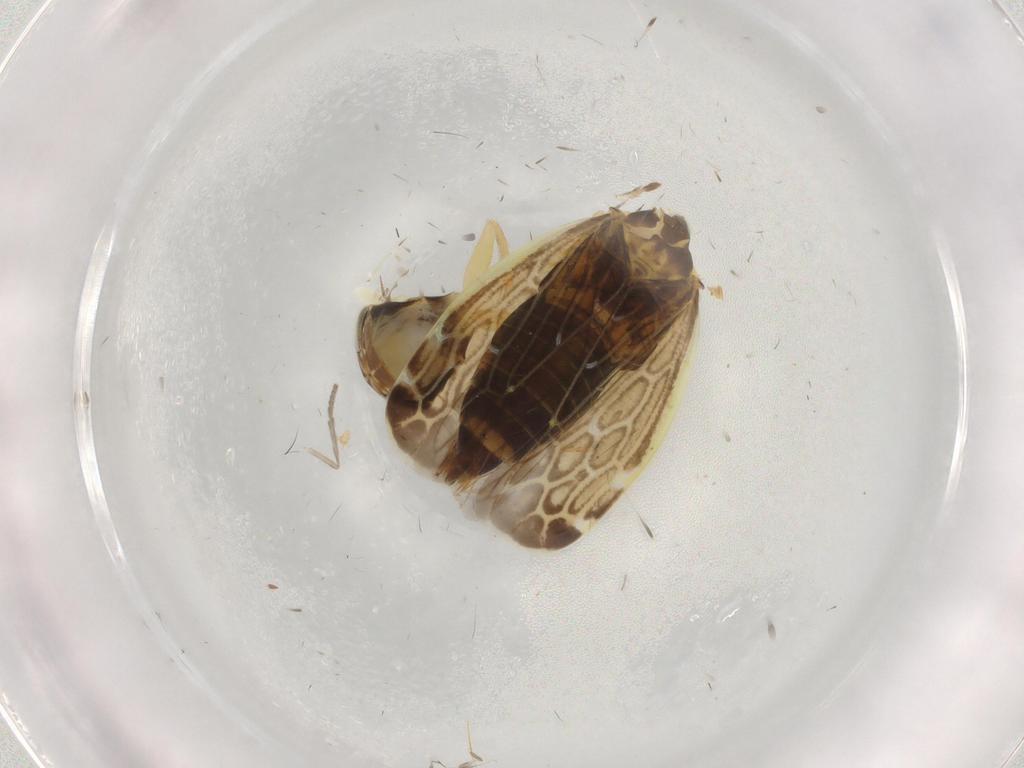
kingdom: Animalia
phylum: Arthropoda
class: Insecta
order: Hemiptera
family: Cicadellidae
